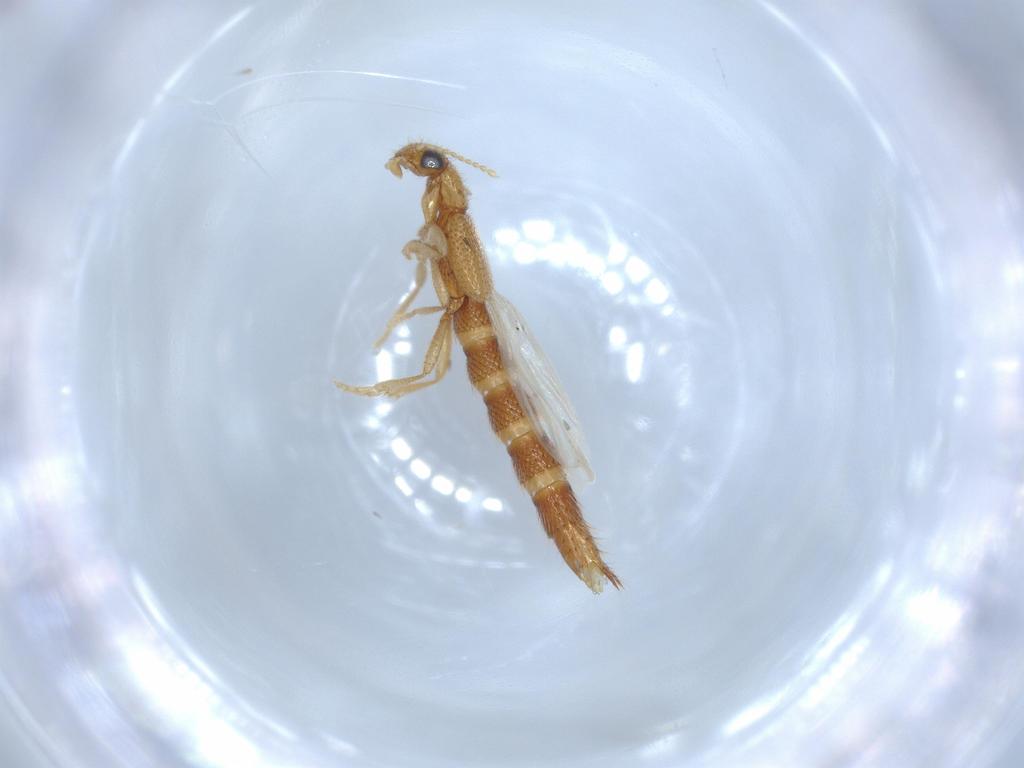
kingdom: Animalia
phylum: Arthropoda
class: Insecta
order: Coleoptera
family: Staphylinidae
